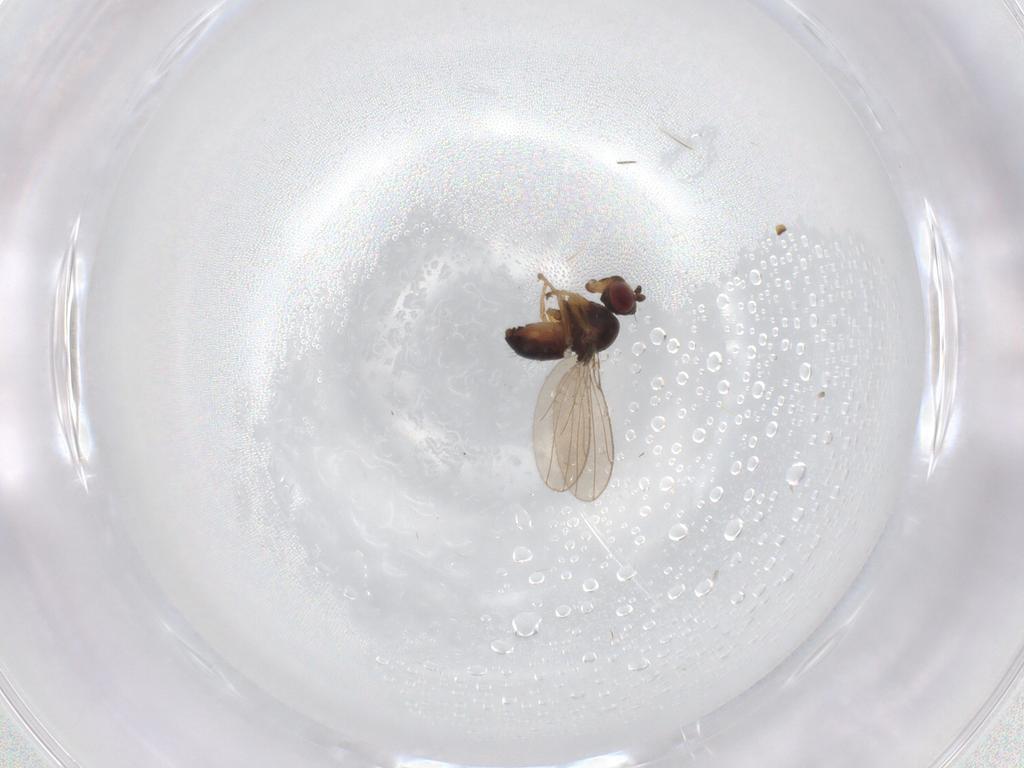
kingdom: Animalia
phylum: Arthropoda
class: Insecta
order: Diptera
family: Ephydridae
